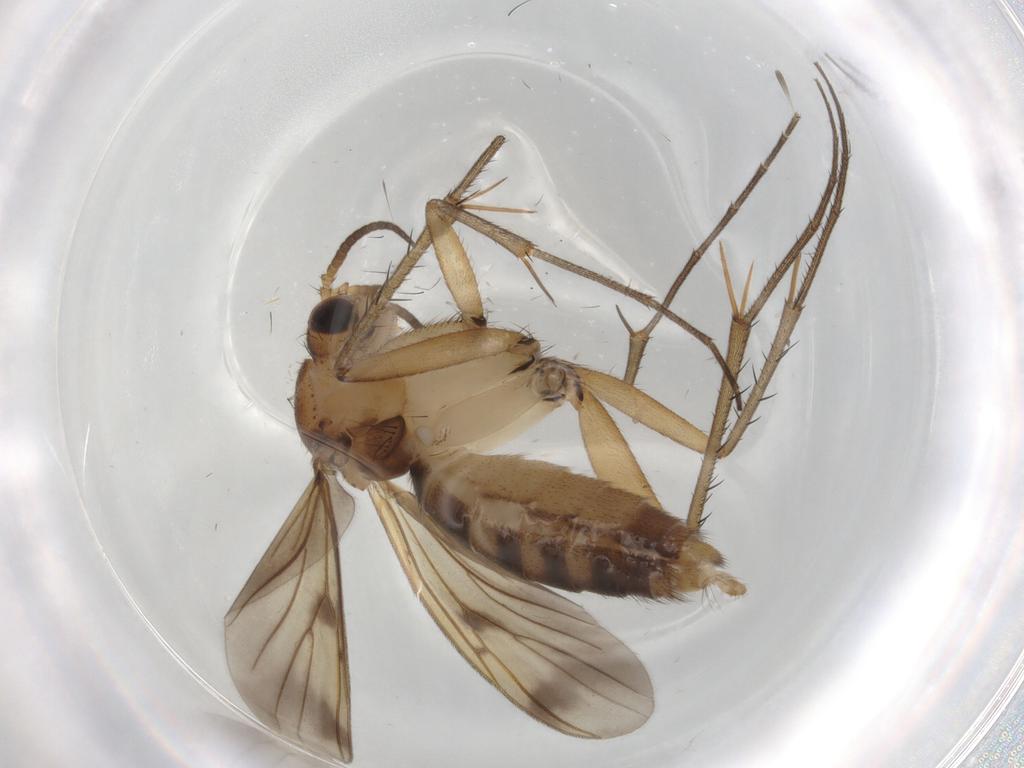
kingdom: Animalia
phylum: Arthropoda
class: Insecta
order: Diptera
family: Mycetophilidae
